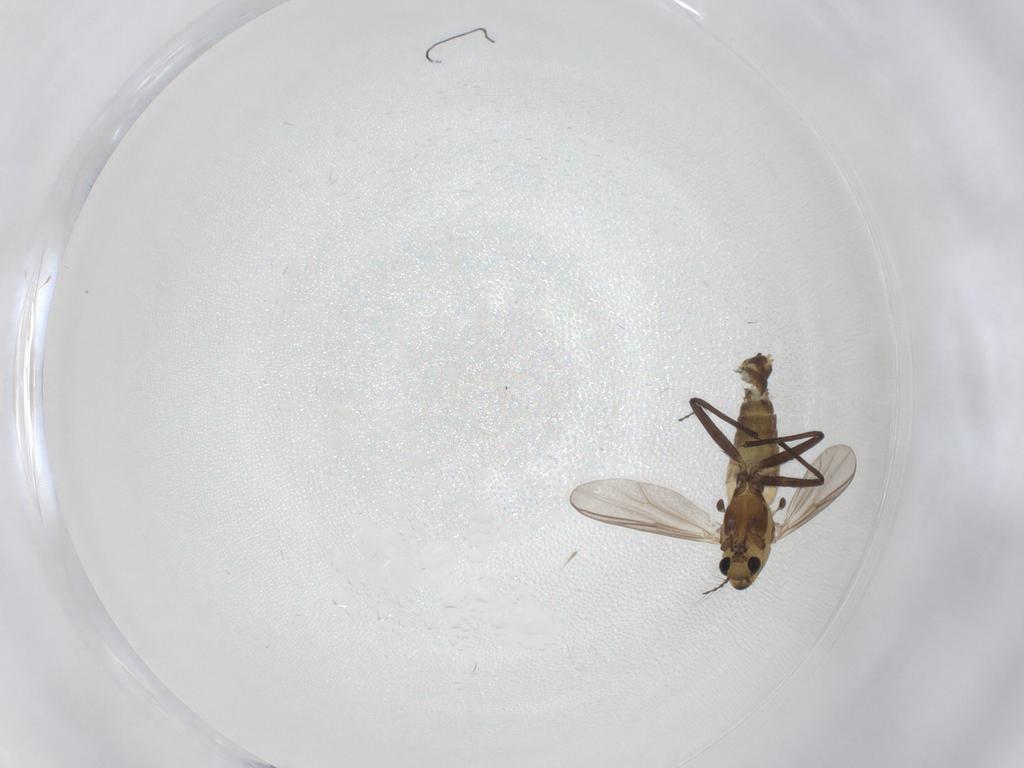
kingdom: Animalia
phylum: Arthropoda
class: Insecta
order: Diptera
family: Chironomidae
